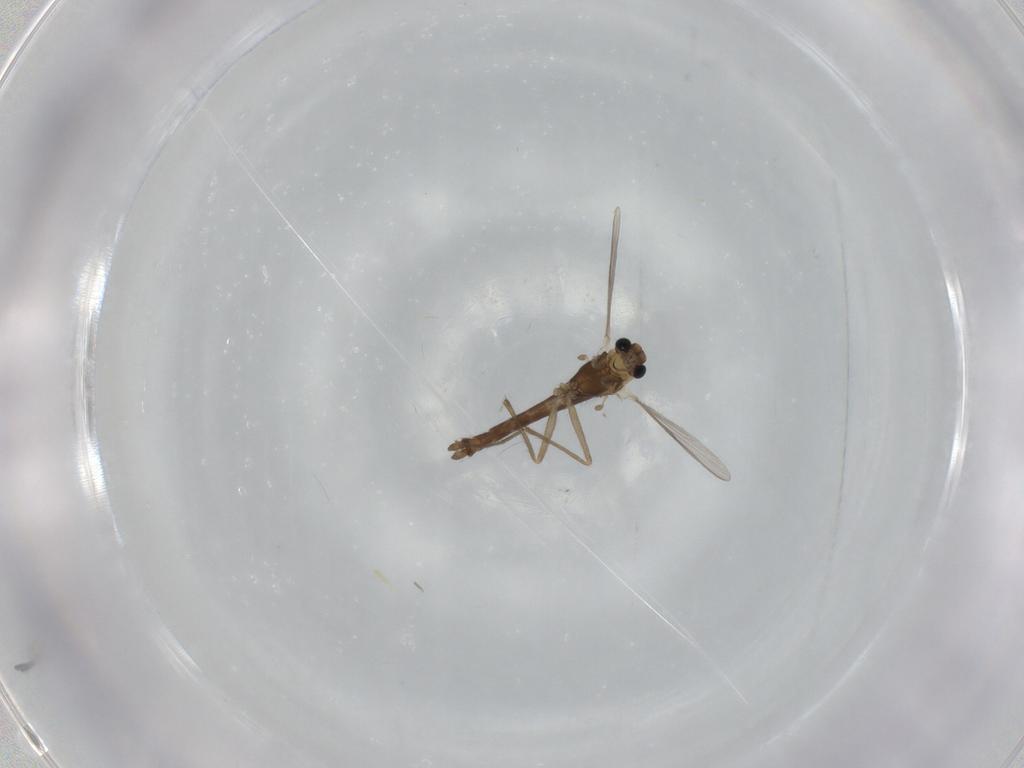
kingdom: Animalia
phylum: Arthropoda
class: Insecta
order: Diptera
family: Chironomidae
